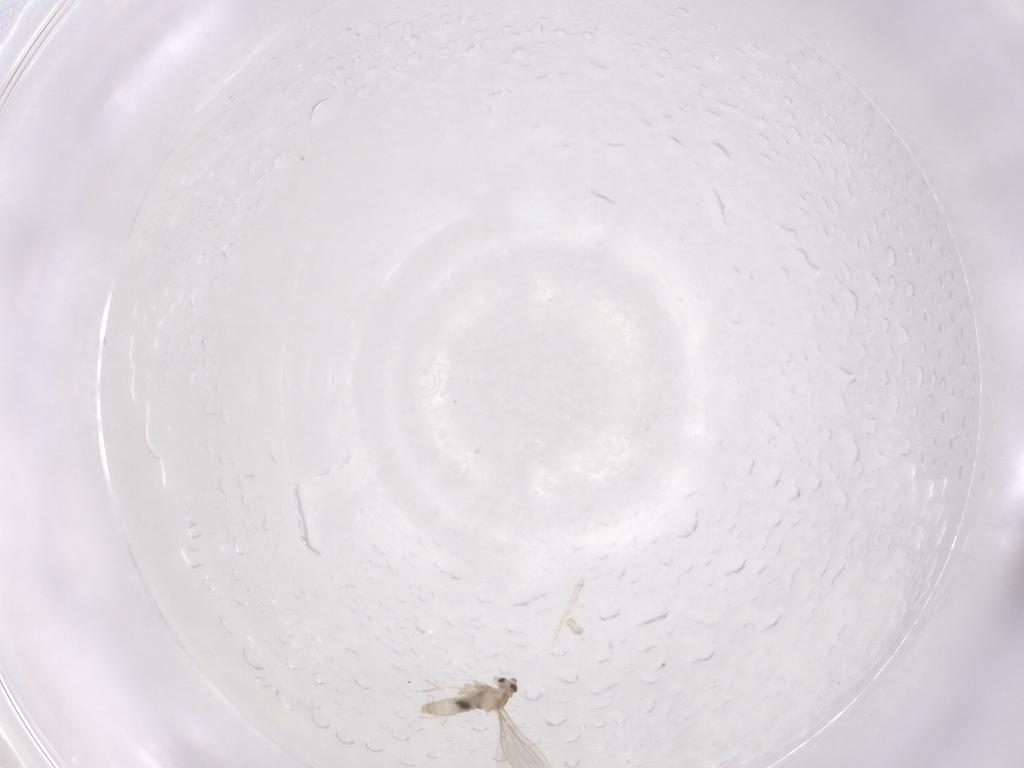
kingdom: Animalia
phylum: Arthropoda
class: Insecta
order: Diptera
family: Cecidomyiidae
